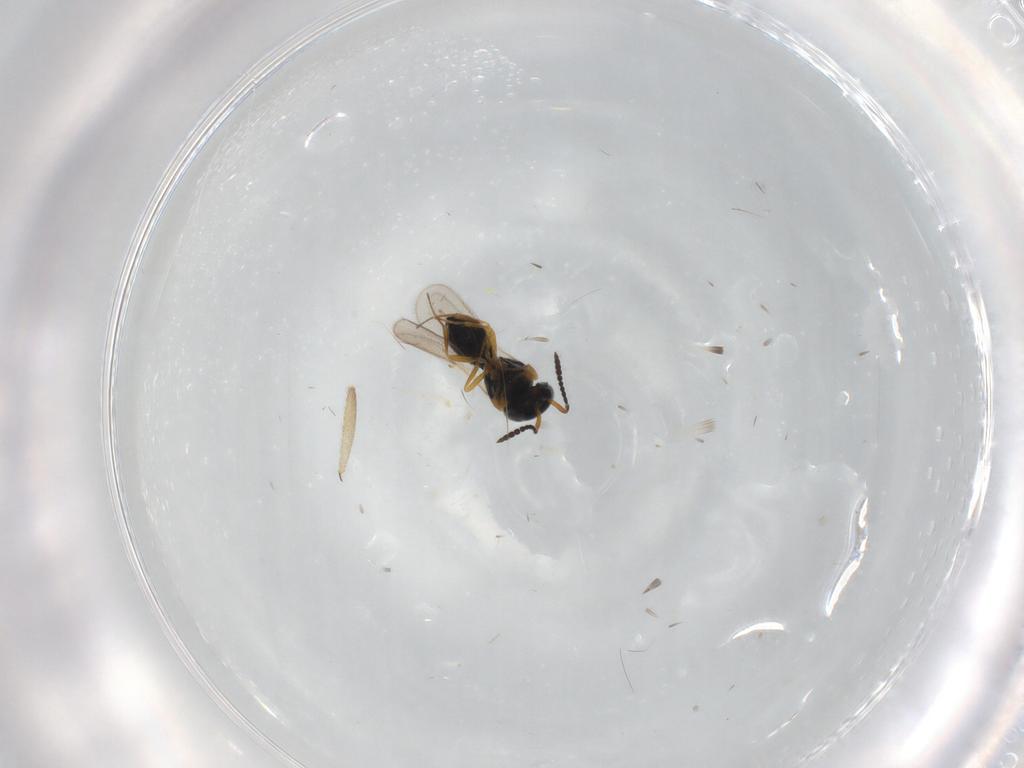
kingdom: Animalia
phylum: Arthropoda
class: Insecta
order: Hymenoptera
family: Scelionidae
